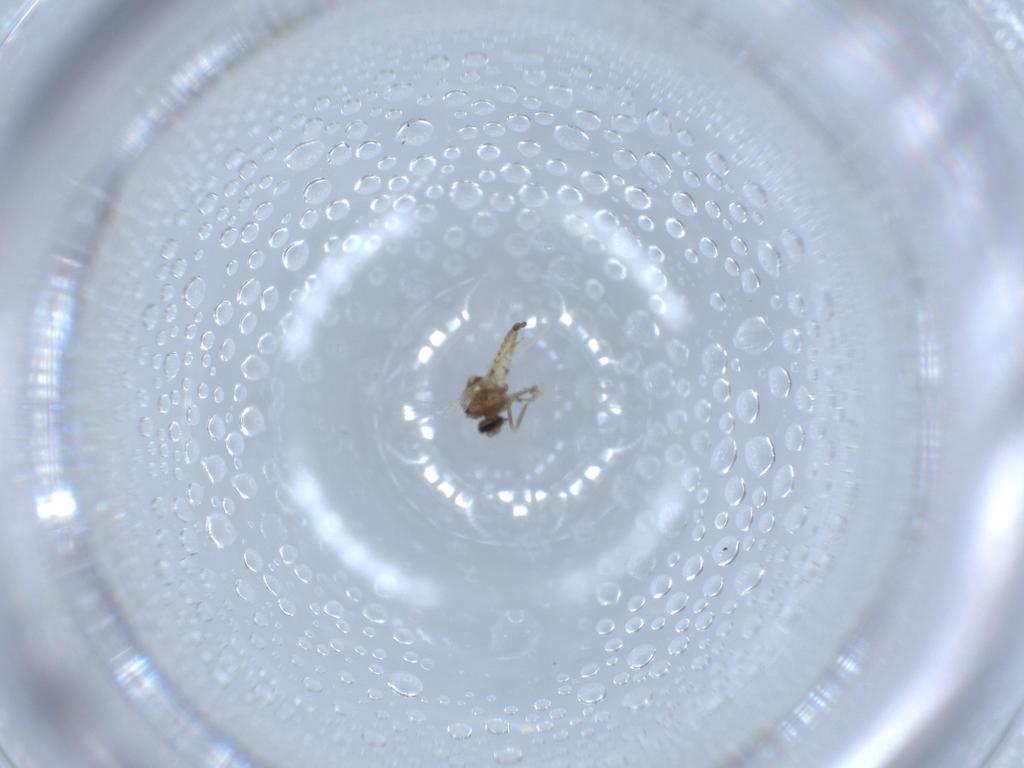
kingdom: Animalia
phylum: Arthropoda
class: Insecta
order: Diptera
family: Ceratopogonidae
